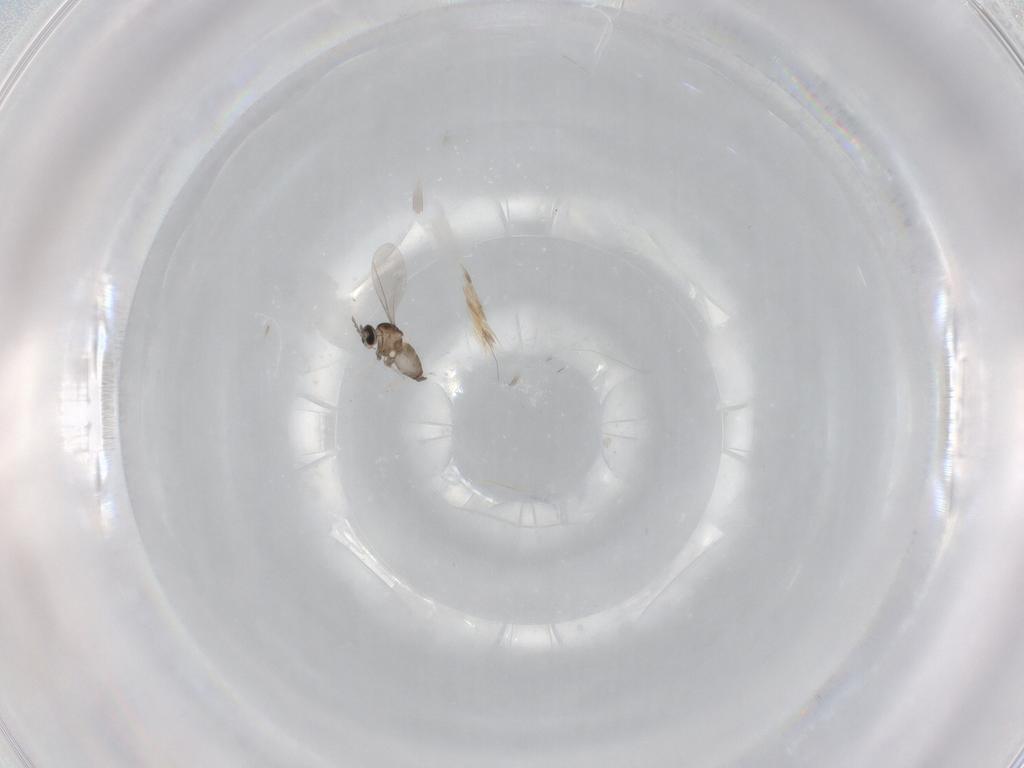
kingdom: Animalia
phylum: Arthropoda
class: Insecta
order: Diptera
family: Cecidomyiidae
